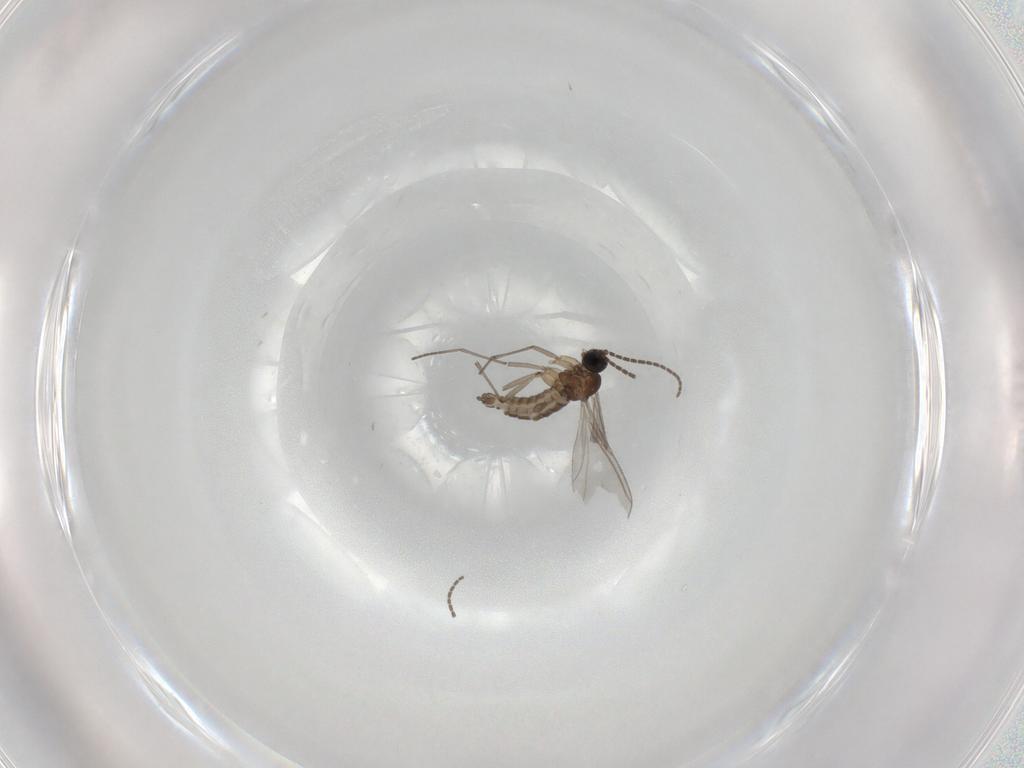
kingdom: Animalia
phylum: Arthropoda
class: Insecta
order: Diptera
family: Sciaridae
